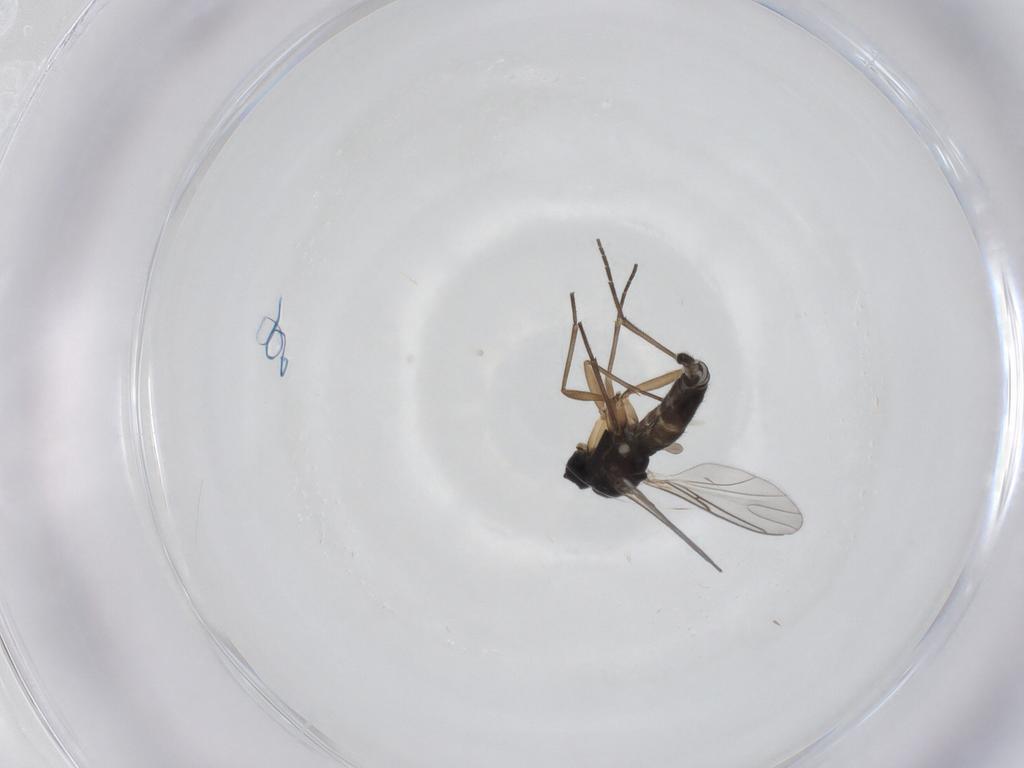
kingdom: Animalia
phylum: Arthropoda
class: Insecta
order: Diptera
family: Sciaridae
